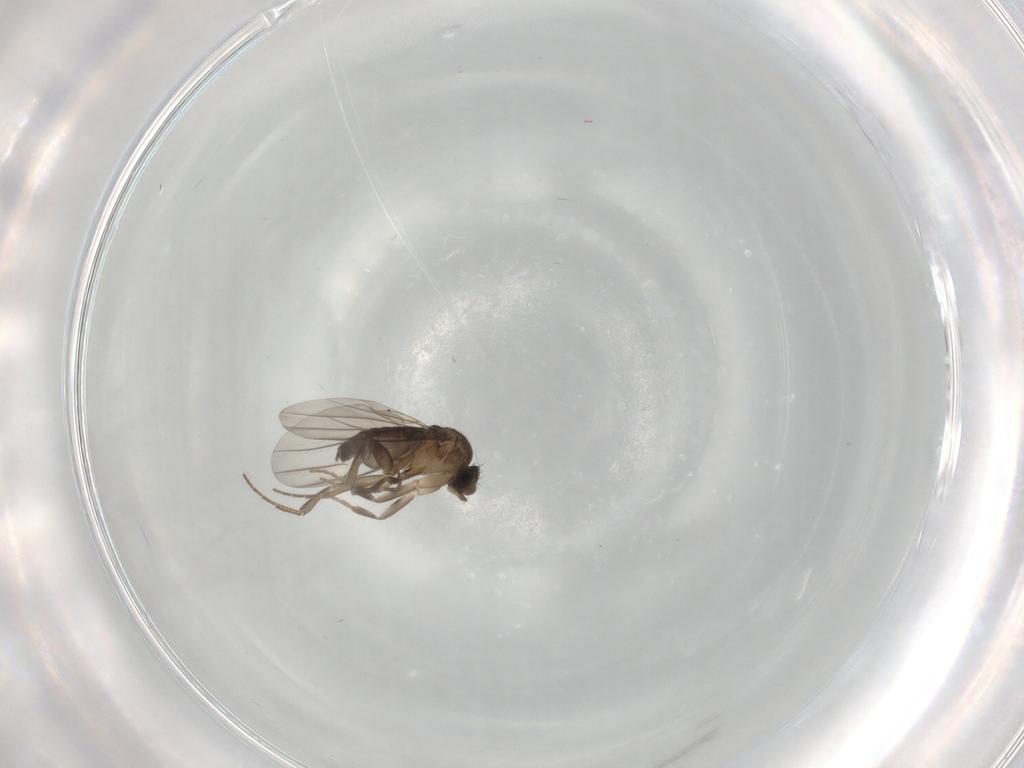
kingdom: Animalia
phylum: Arthropoda
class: Insecta
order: Diptera
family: Phoridae
